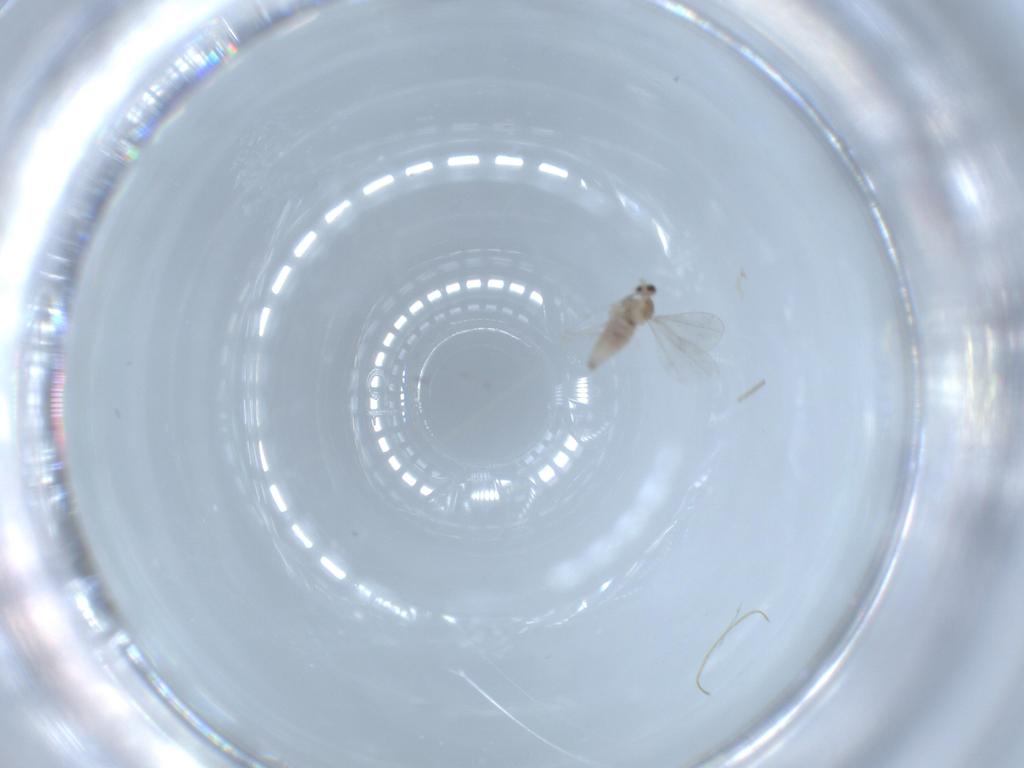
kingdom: Animalia
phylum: Arthropoda
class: Insecta
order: Diptera
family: Cecidomyiidae
